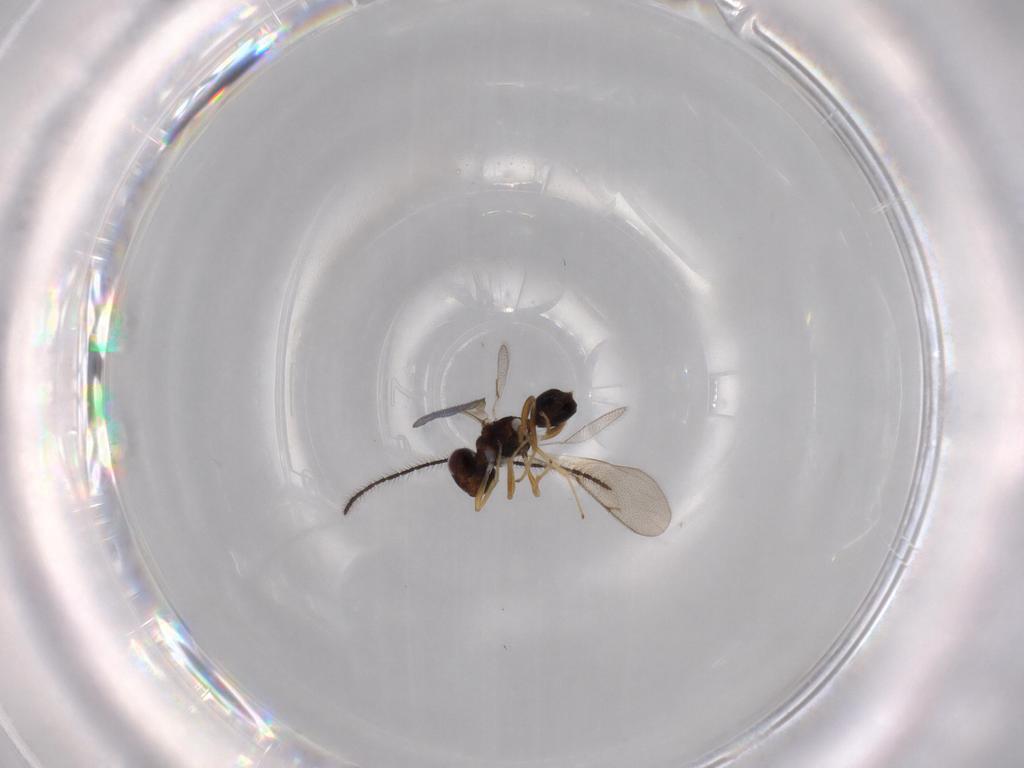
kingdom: Animalia
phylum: Arthropoda
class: Insecta
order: Hymenoptera
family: Diparidae
